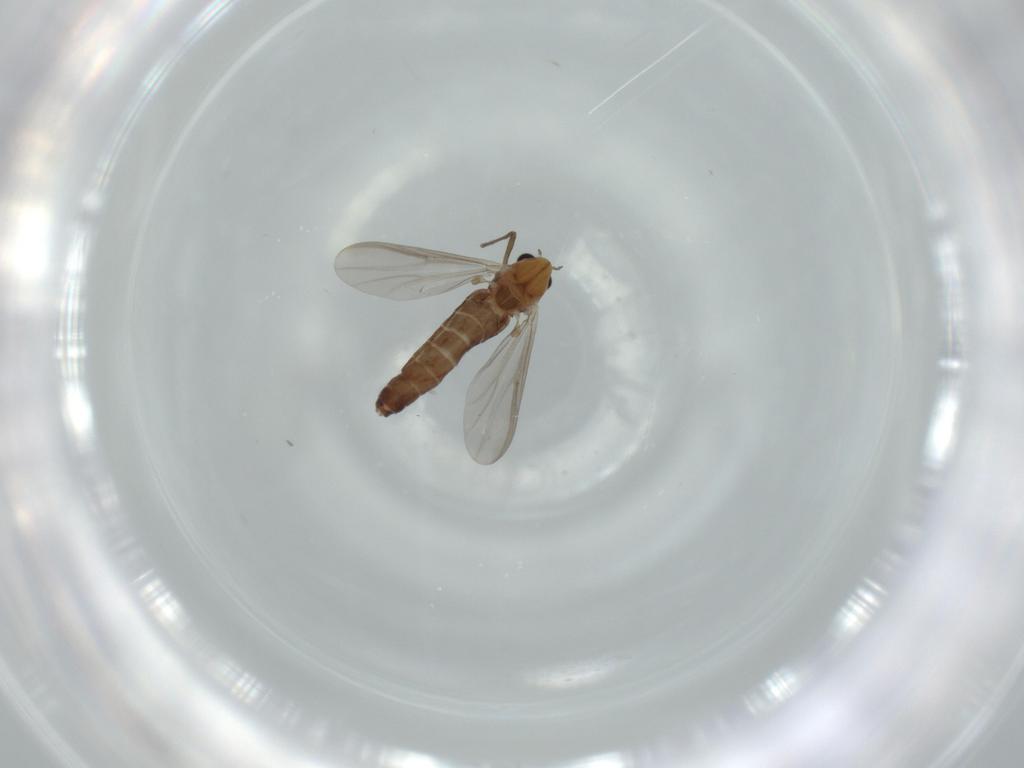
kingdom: Animalia
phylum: Arthropoda
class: Insecta
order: Diptera
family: Chironomidae
